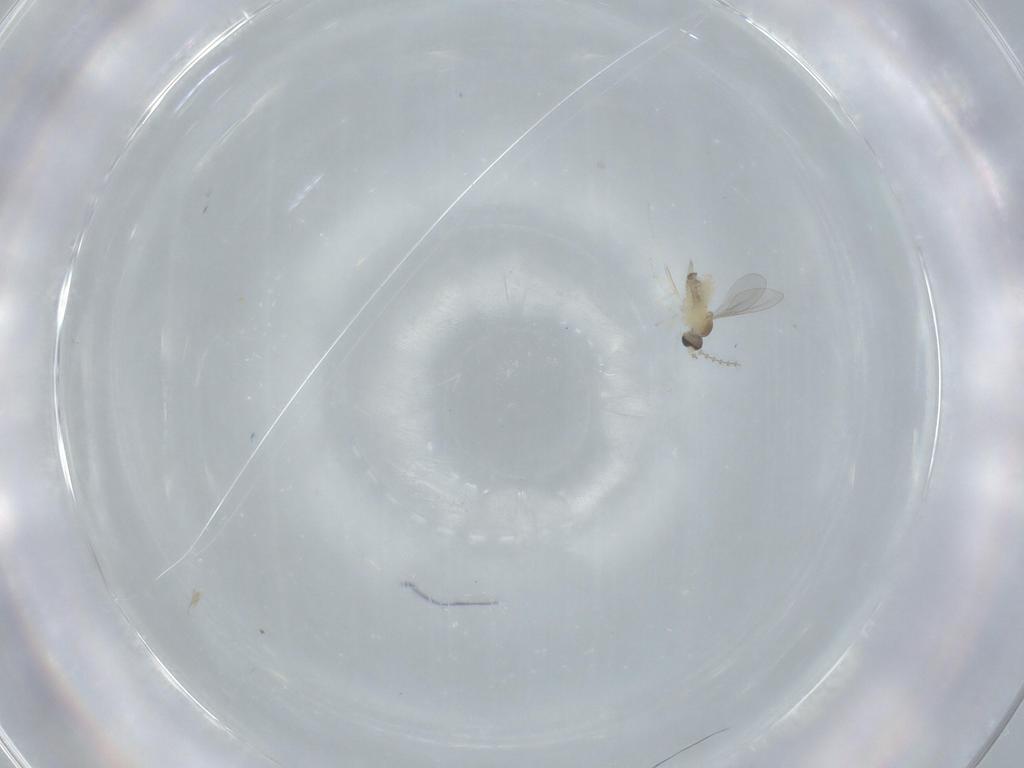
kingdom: Animalia
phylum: Arthropoda
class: Insecta
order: Diptera
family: Cecidomyiidae
